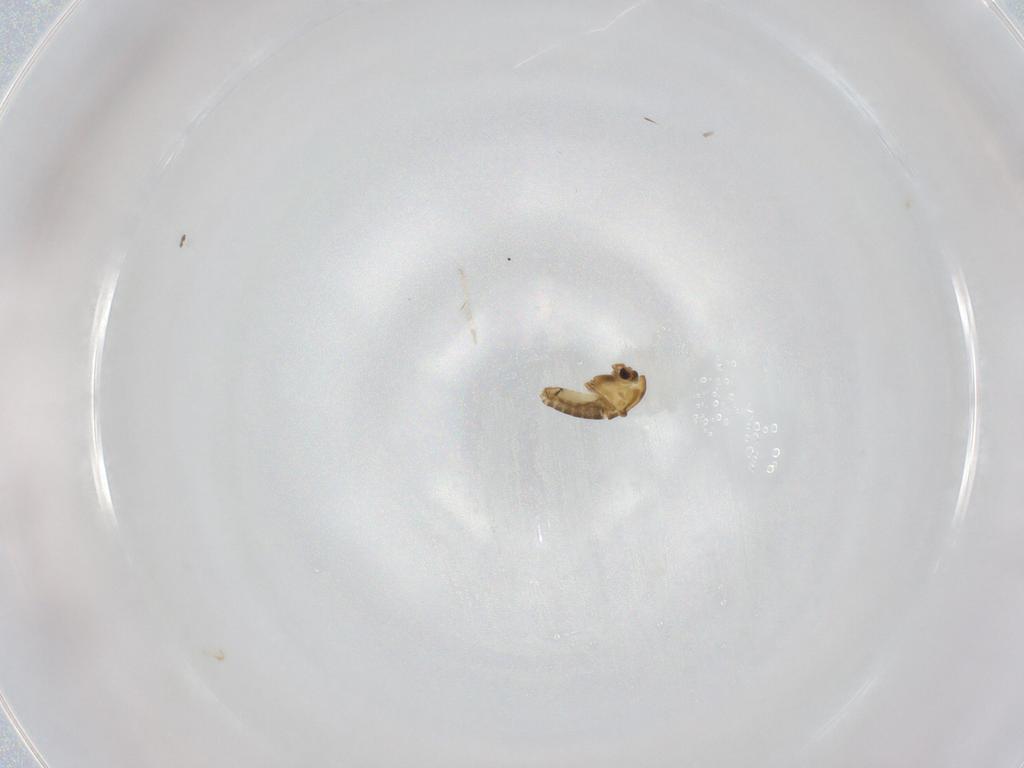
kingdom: Animalia
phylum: Arthropoda
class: Insecta
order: Diptera
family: Chironomidae
